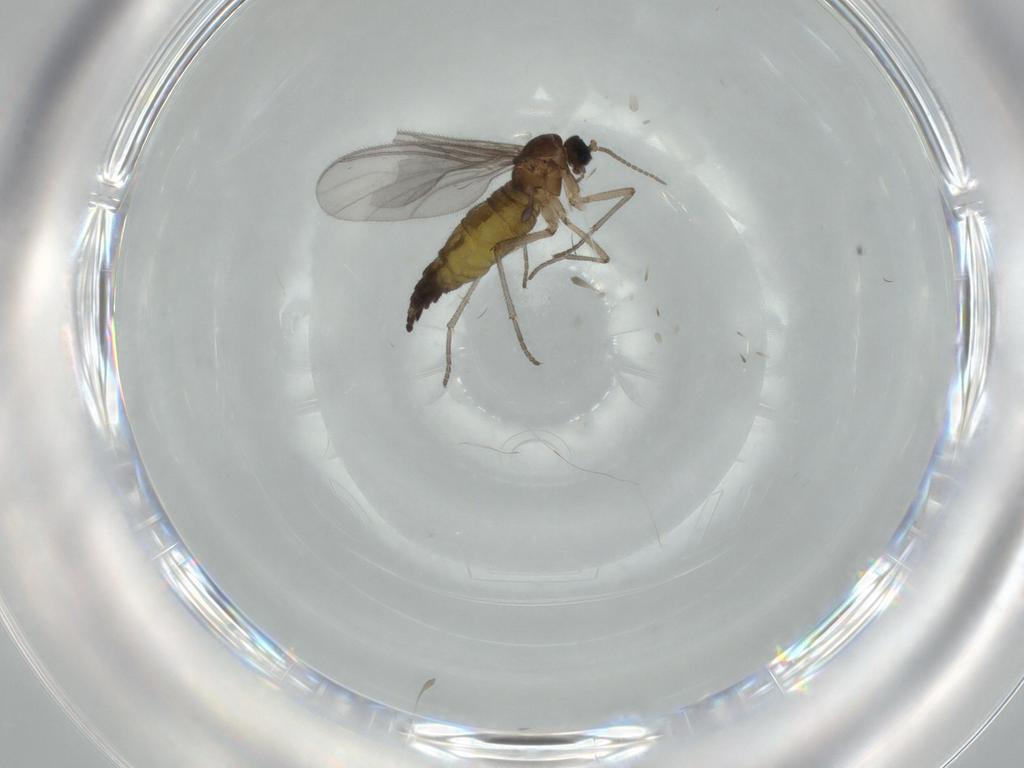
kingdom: Animalia
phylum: Arthropoda
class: Insecta
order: Diptera
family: Sciaridae
